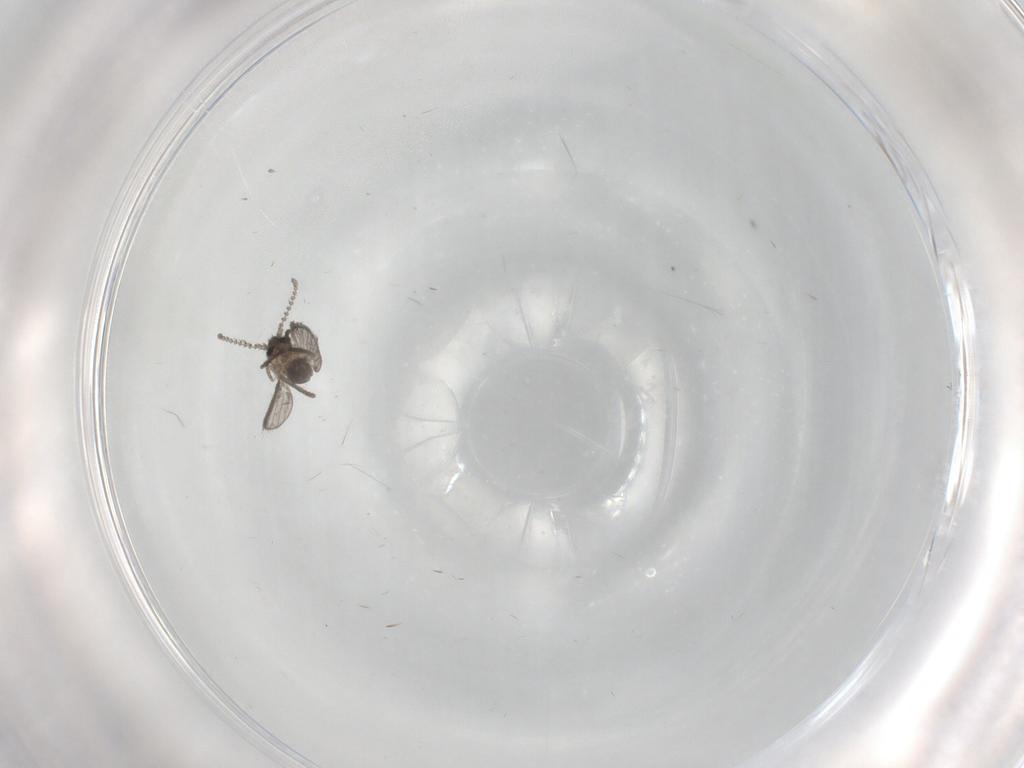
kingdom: Animalia
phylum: Arthropoda
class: Insecta
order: Diptera
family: Psychodidae
